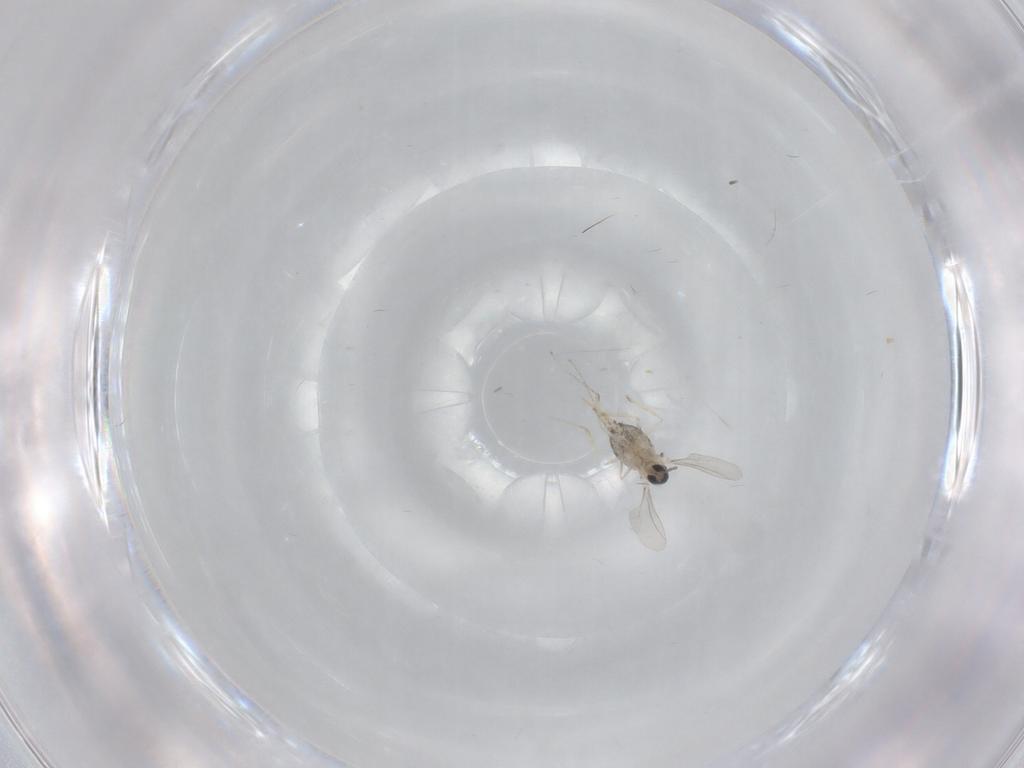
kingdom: Animalia
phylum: Arthropoda
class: Insecta
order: Diptera
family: Cecidomyiidae
